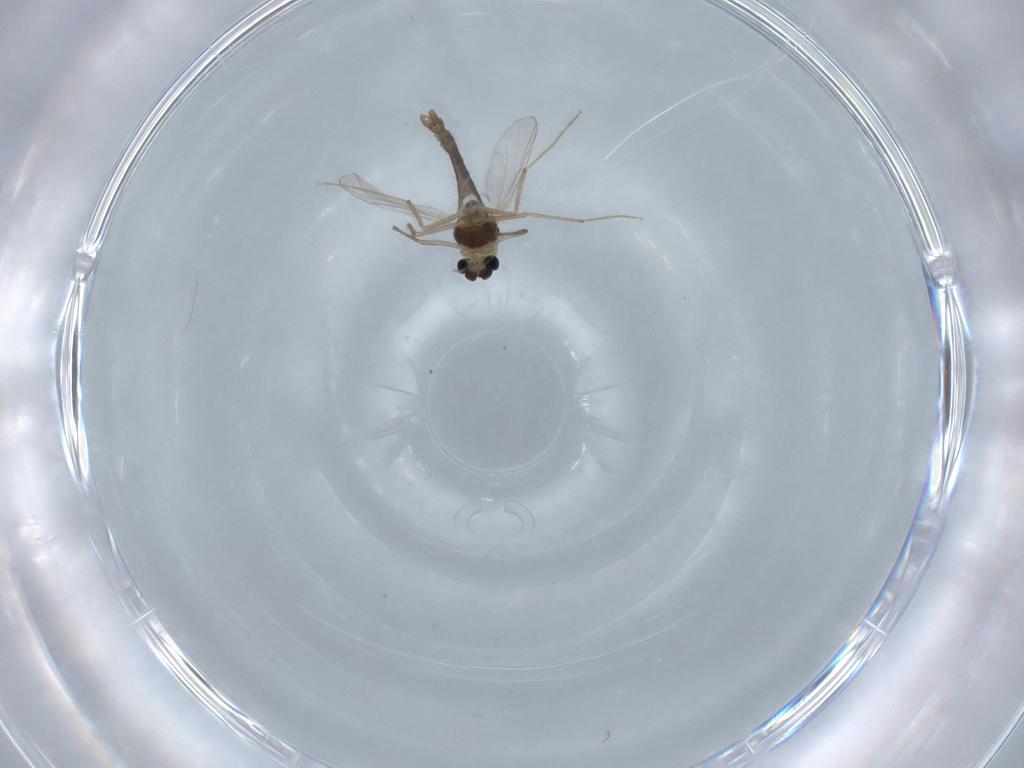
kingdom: Animalia
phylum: Arthropoda
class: Insecta
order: Diptera
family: Chironomidae
